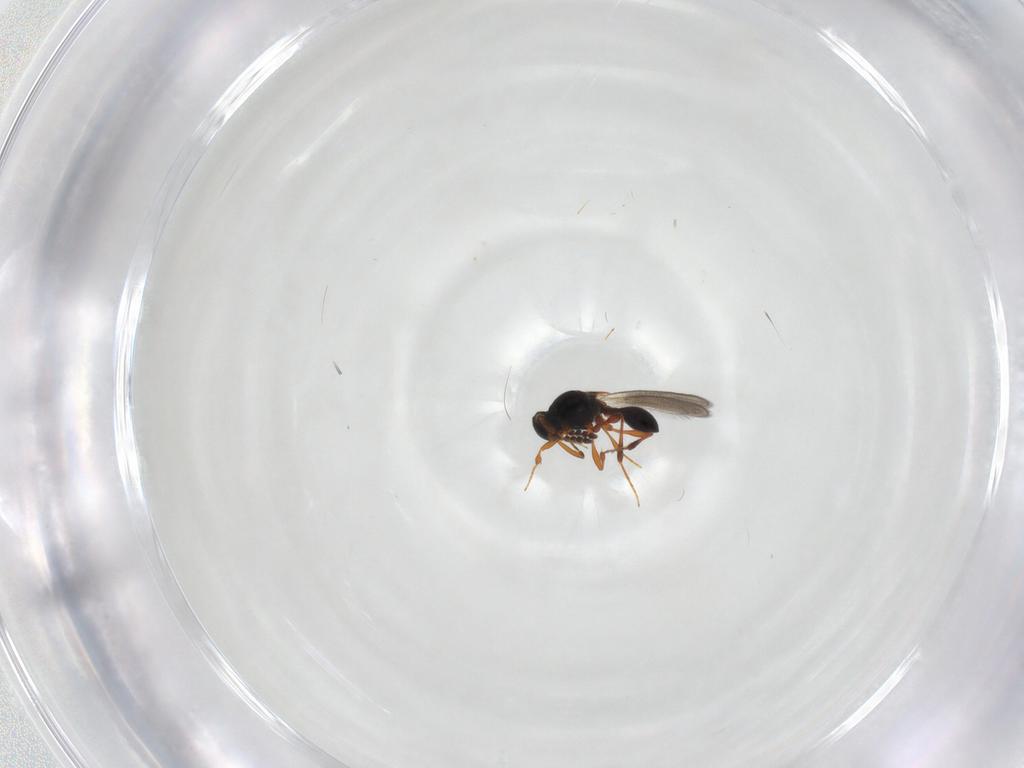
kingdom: Animalia
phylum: Arthropoda
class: Insecta
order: Hymenoptera
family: Platygastridae
